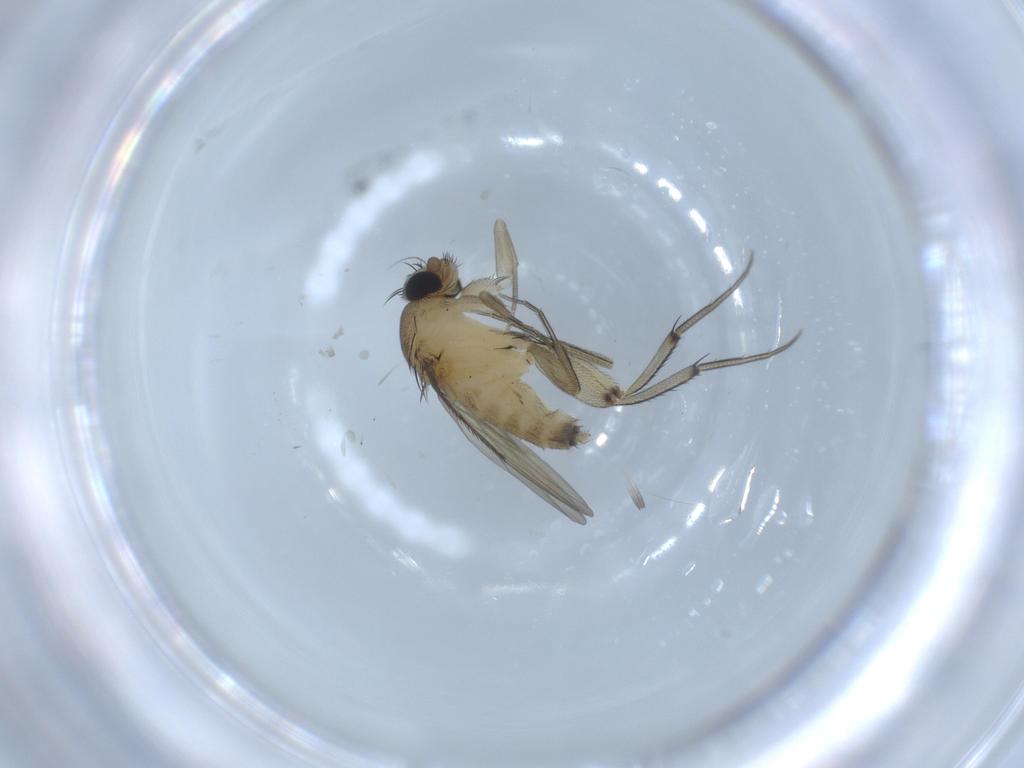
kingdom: Animalia
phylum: Arthropoda
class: Insecta
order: Diptera
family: Phoridae
